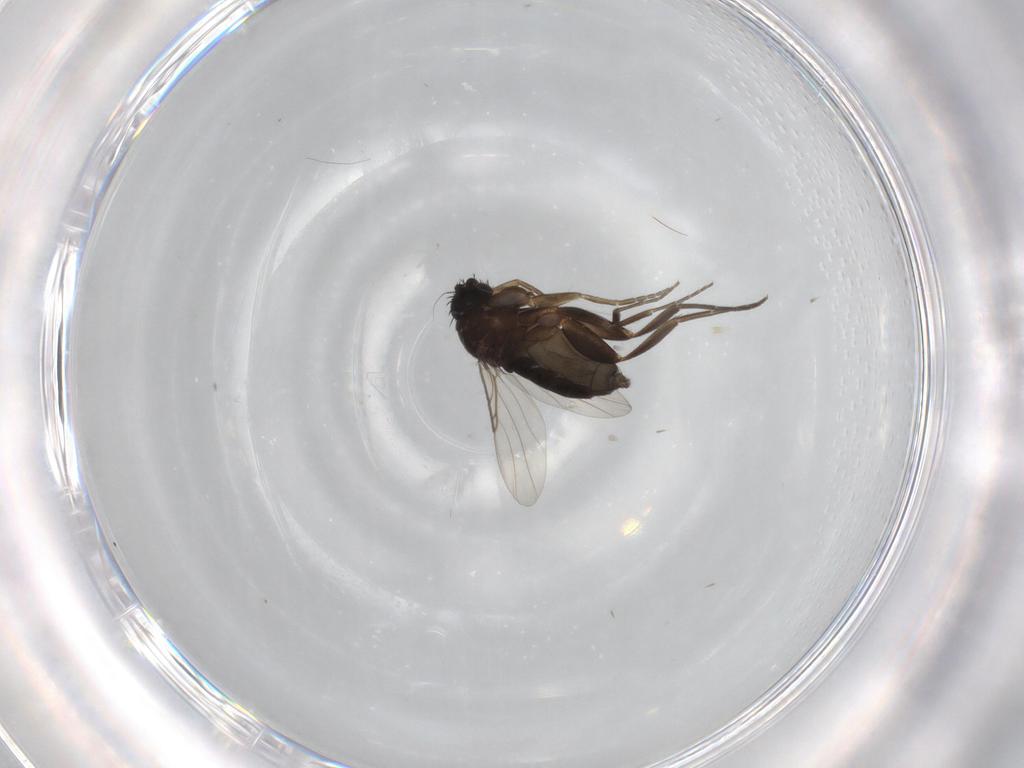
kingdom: Animalia
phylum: Arthropoda
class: Insecta
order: Diptera
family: Phoridae
